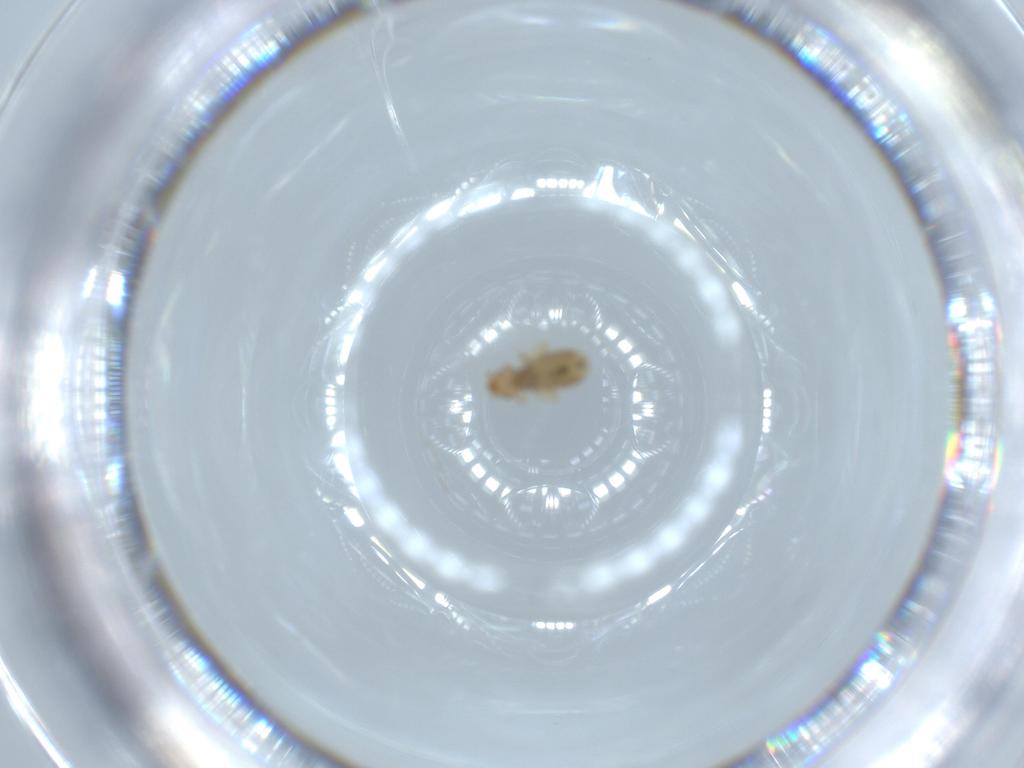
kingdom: Animalia
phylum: Arthropoda
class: Insecta
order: Psocodea
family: Liposcelididae
